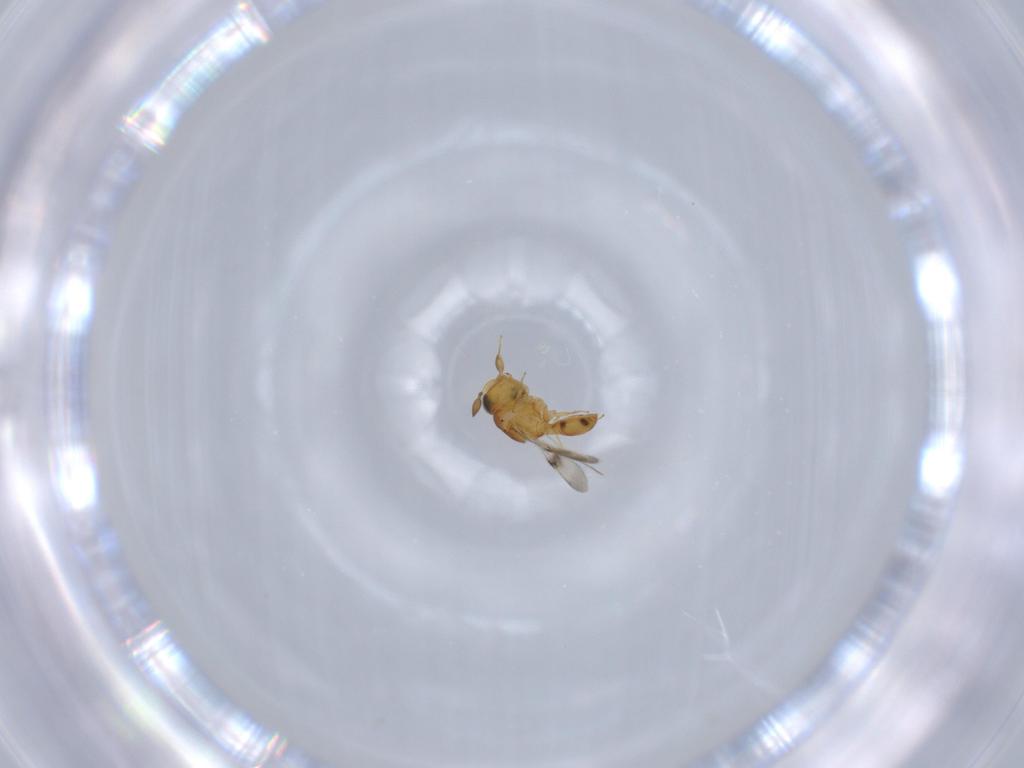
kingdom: Animalia
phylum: Arthropoda
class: Insecta
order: Hymenoptera
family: Scelionidae
